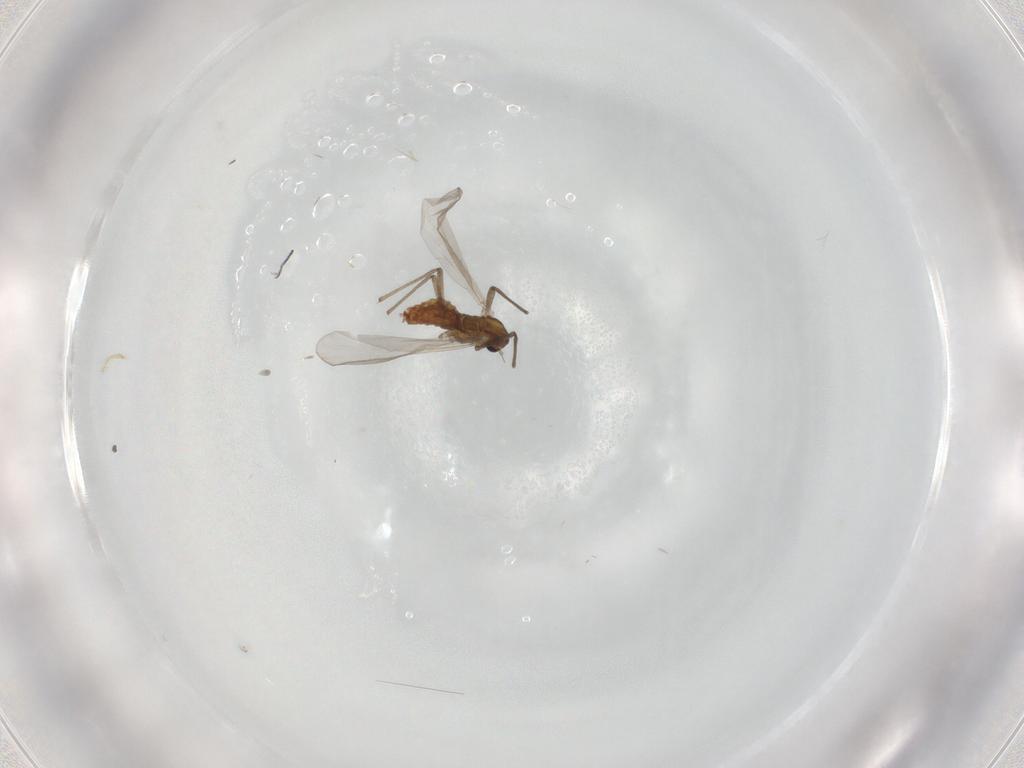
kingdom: Animalia
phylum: Arthropoda
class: Insecta
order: Diptera
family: Chironomidae
